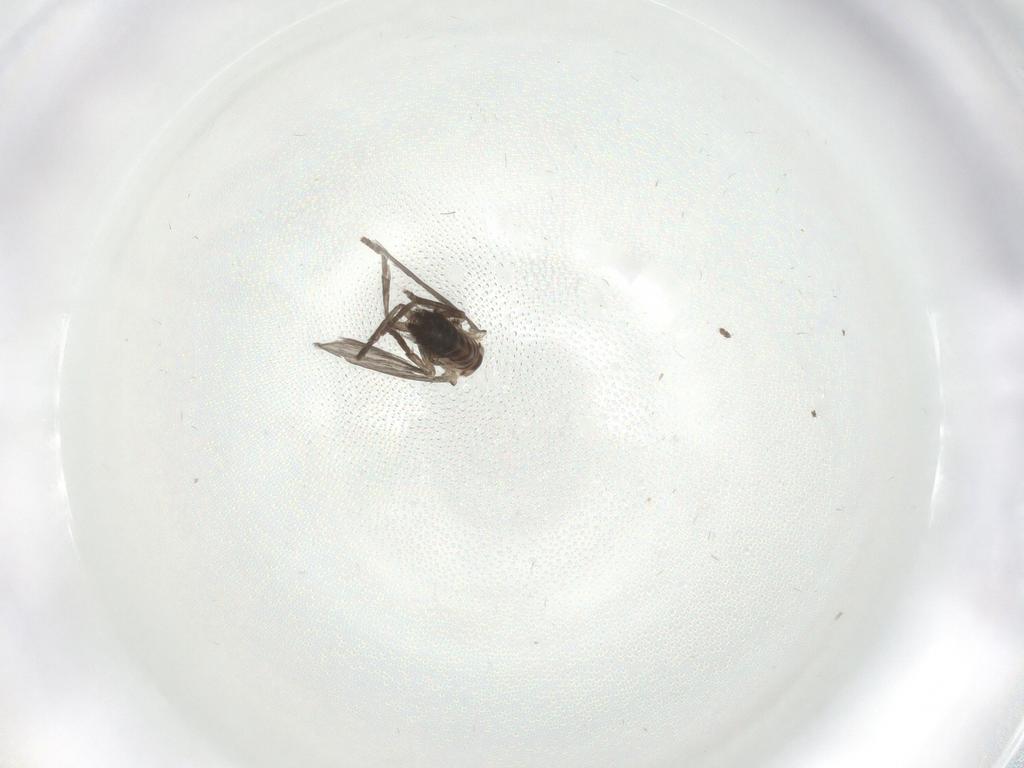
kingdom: Animalia
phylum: Arthropoda
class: Insecta
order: Diptera
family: Psychodidae
